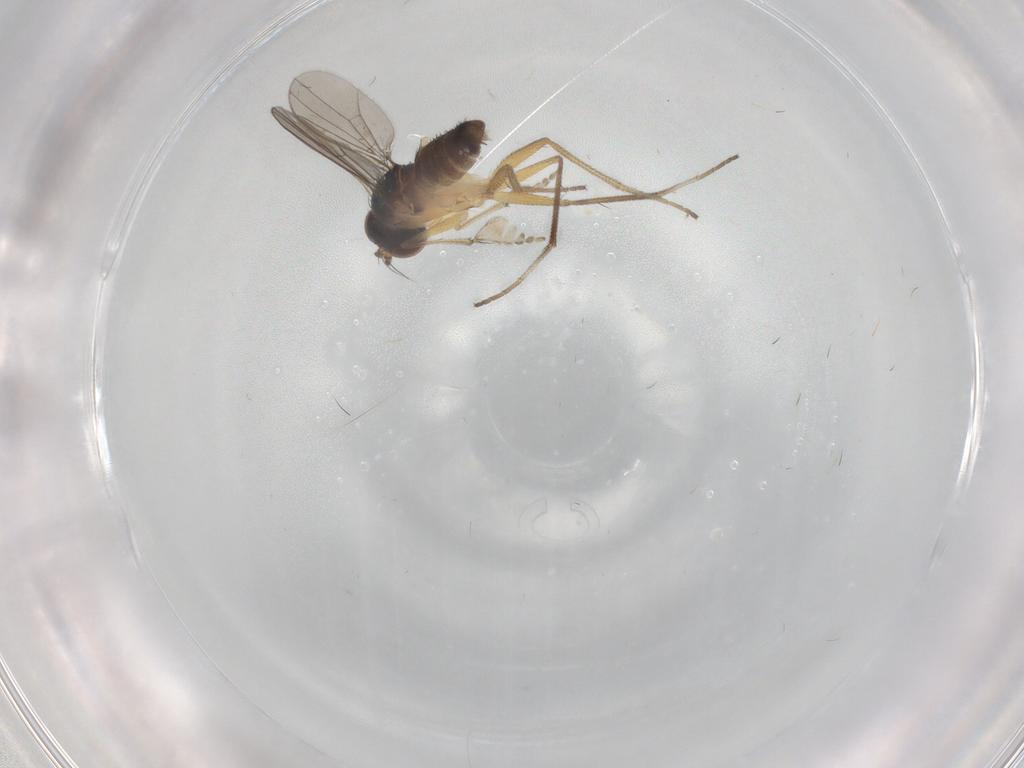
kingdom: Animalia
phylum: Arthropoda
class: Insecta
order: Diptera
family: Dolichopodidae
